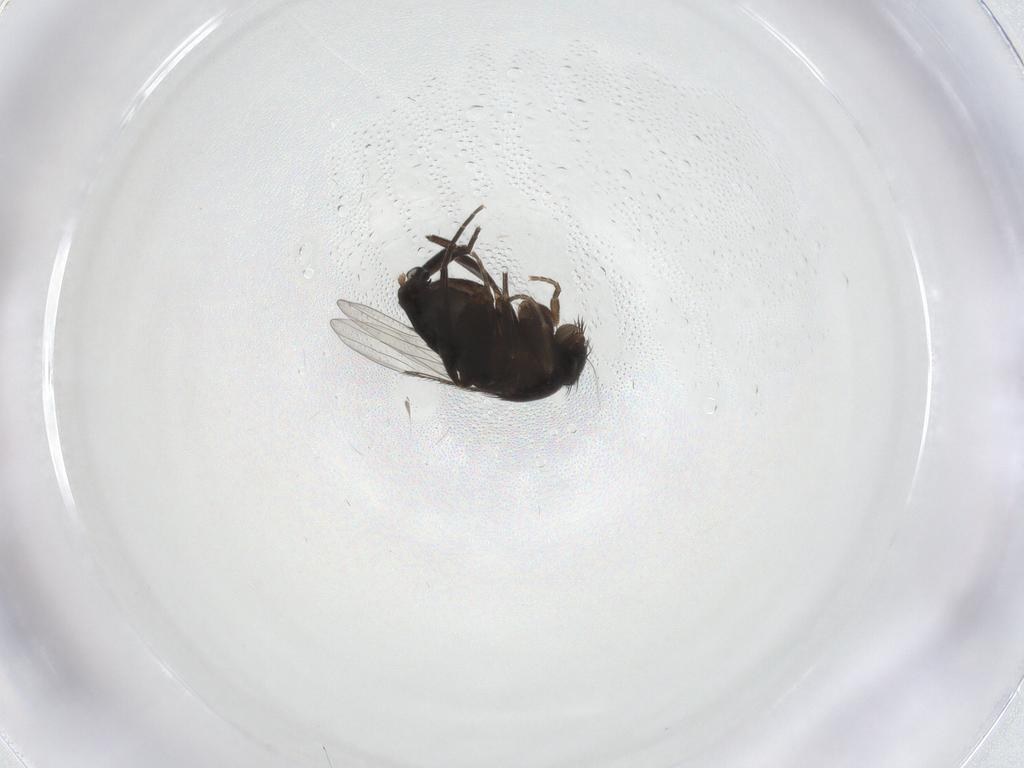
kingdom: Animalia
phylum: Arthropoda
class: Insecta
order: Diptera
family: Phoridae
